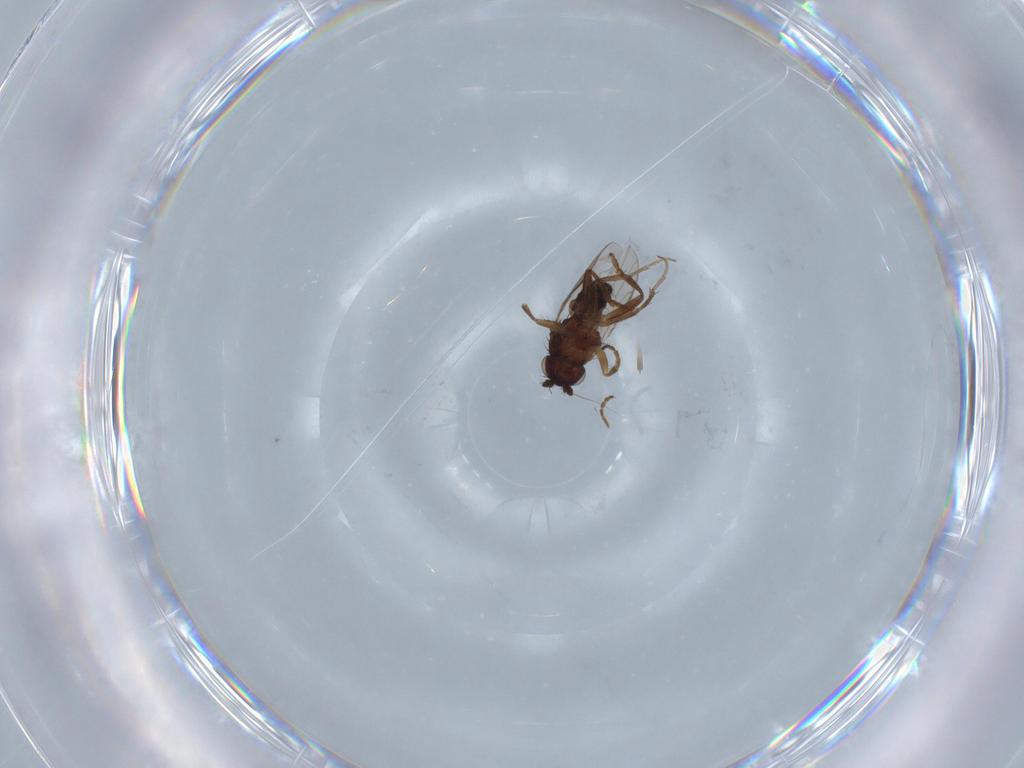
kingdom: Animalia
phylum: Arthropoda
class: Insecta
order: Diptera
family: Sphaeroceridae
